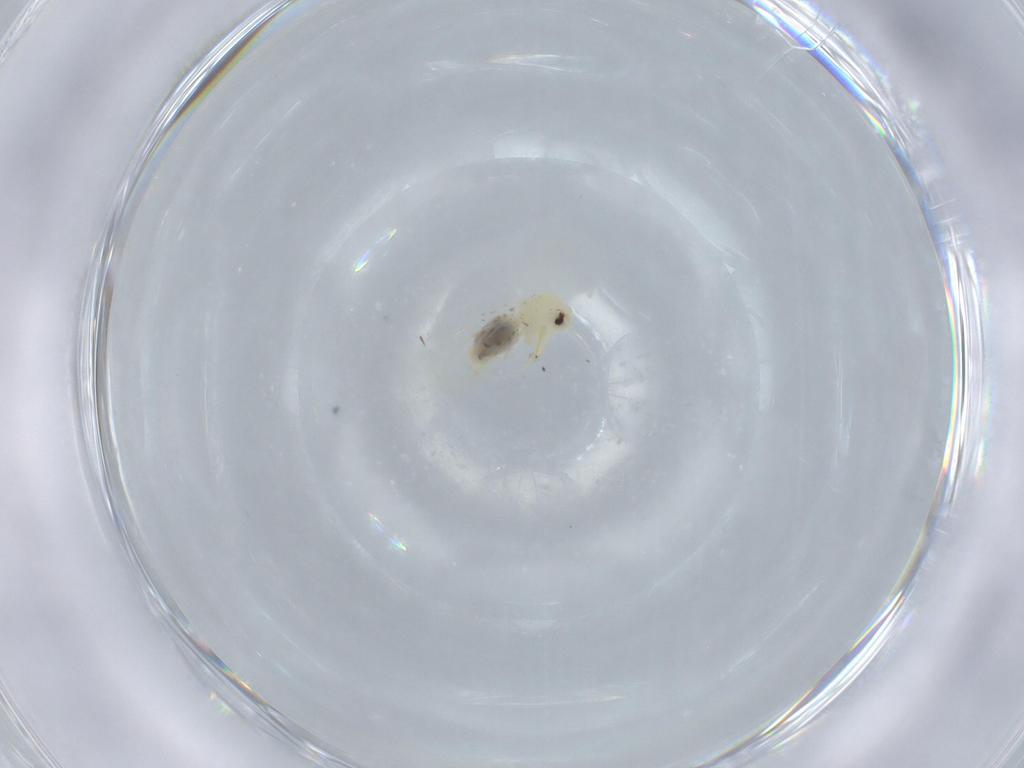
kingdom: Animalia
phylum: Arthropoda
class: Insecta
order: Hemiptera
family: Aleyrodidae
